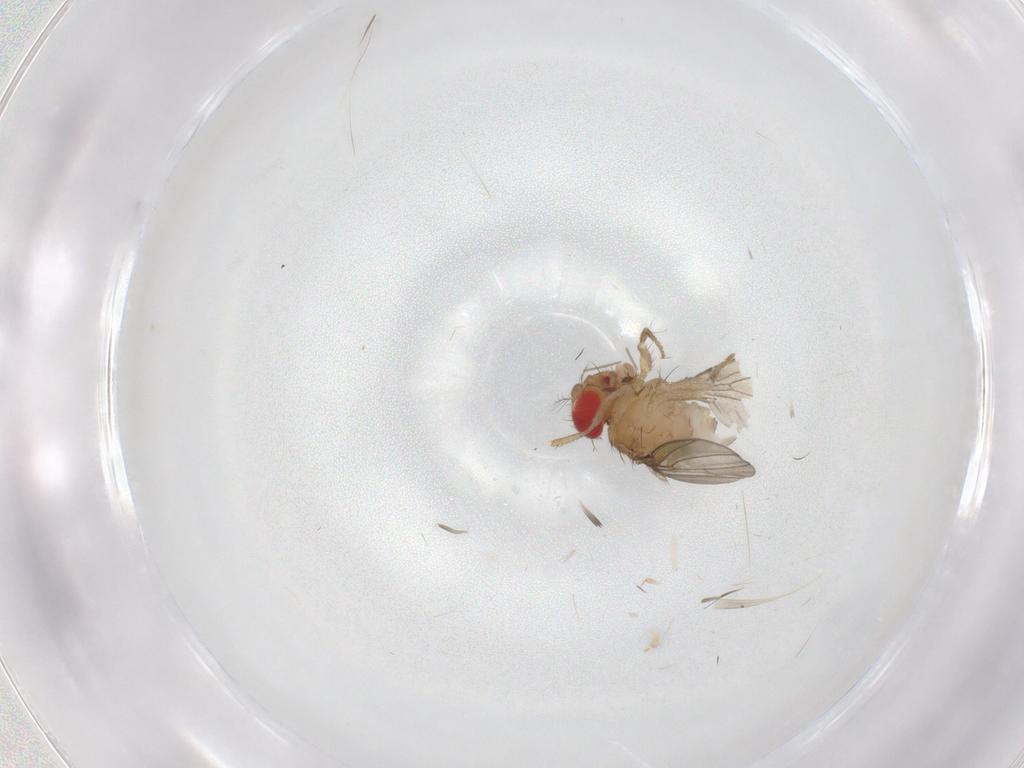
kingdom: Animalia
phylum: Arthropoda
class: Insecta
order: Diptera
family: Drosophilidae
